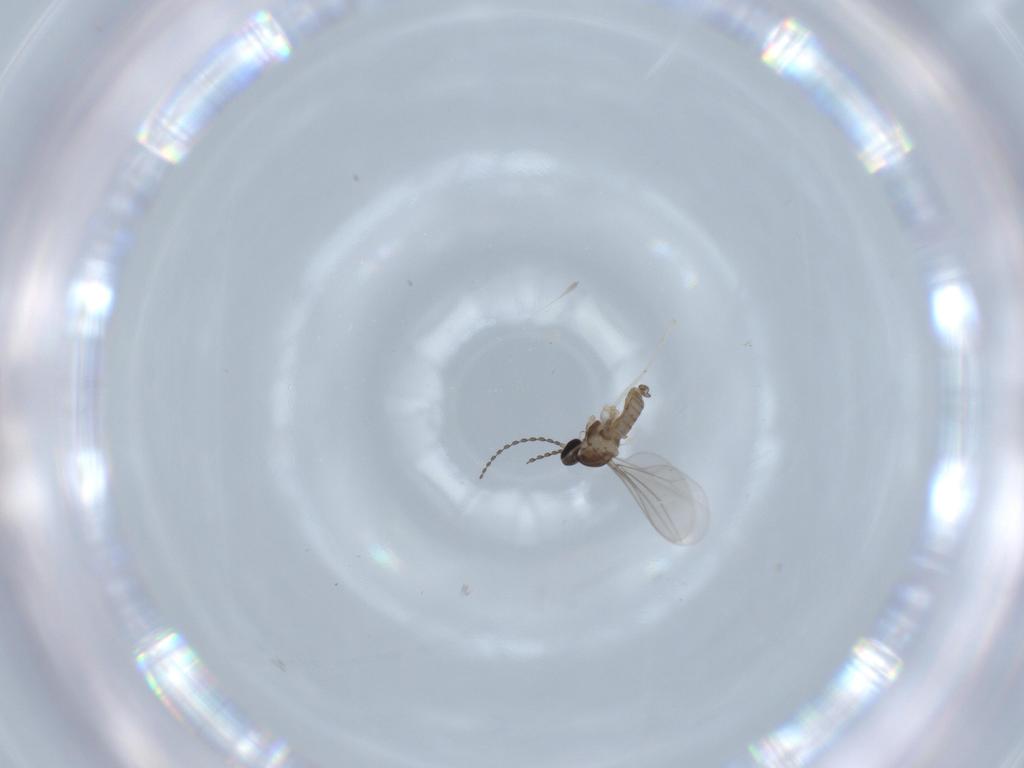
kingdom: Animalia
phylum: Arthropoda
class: Insecta
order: Diptera
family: Cecidomyiidae
